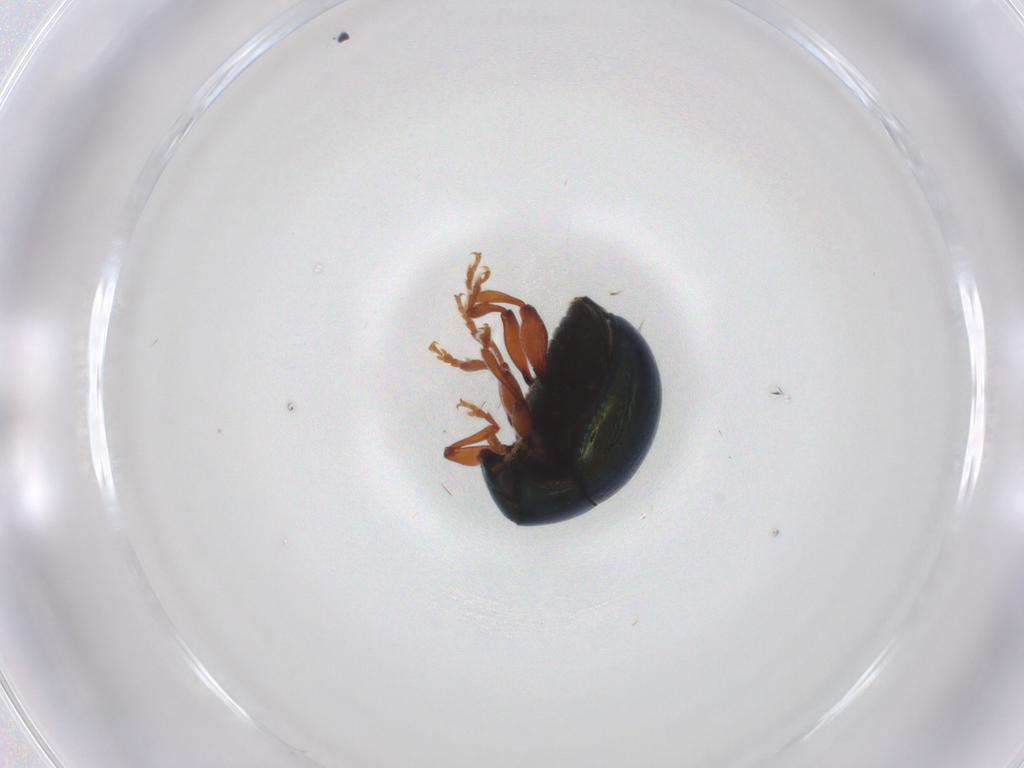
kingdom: Animalia
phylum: Arthropoda
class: Insecta
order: Coleoptera
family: Chrysomelidae
